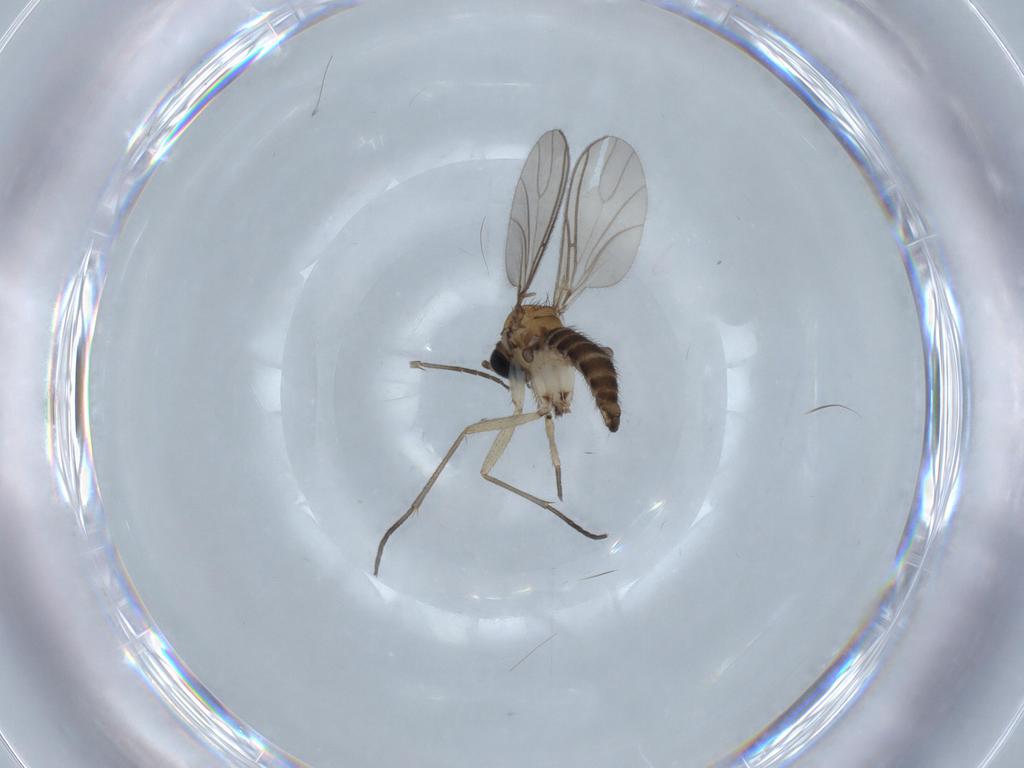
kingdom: Animalia
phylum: Arthropoda
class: Insecta
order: Diptera
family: Sciaridae
